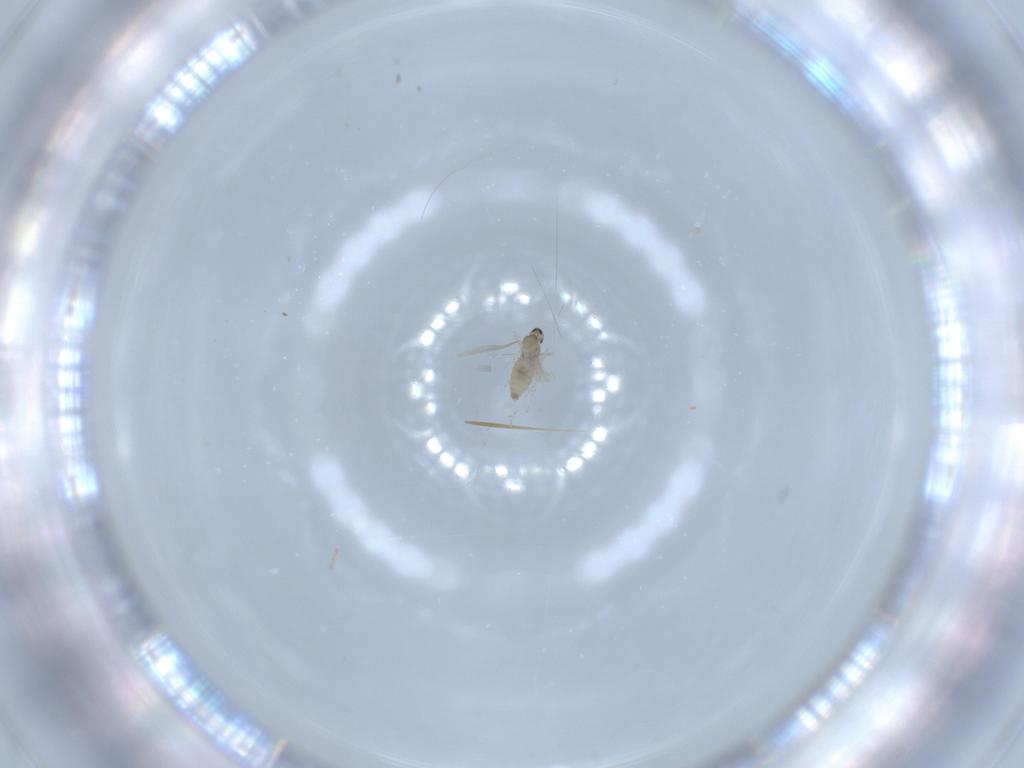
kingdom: Animalia
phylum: Arthropoda
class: Insecta
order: Diptera
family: Cecidomyiidae
